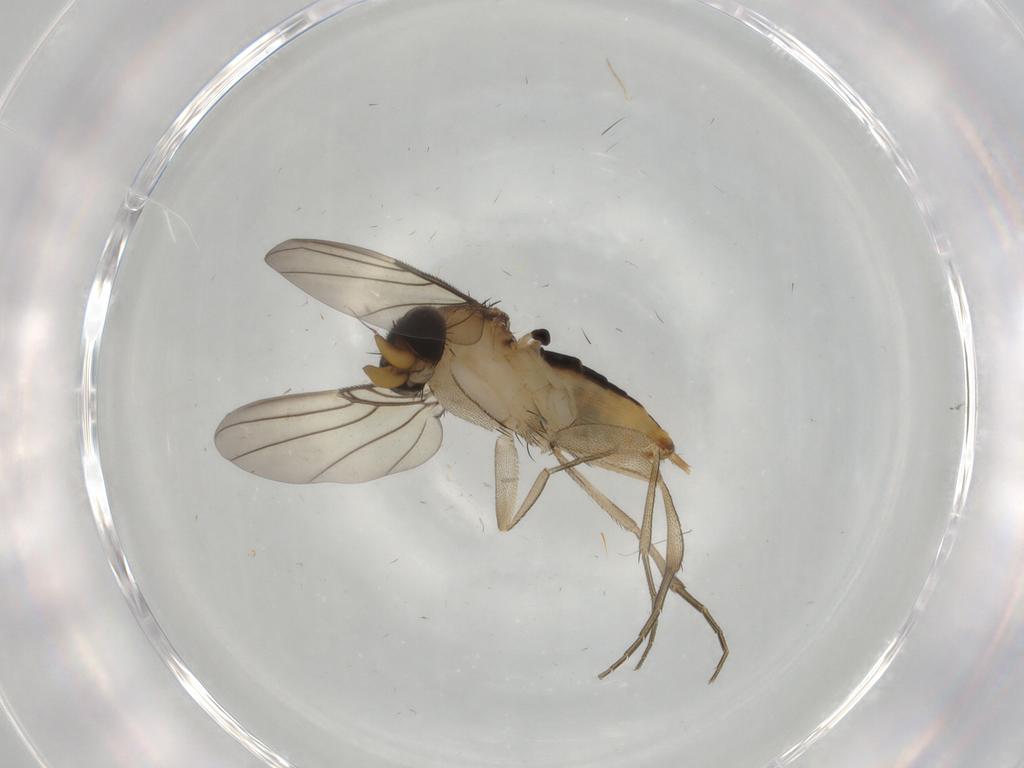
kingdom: Animalia
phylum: Arthropoda
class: Insecta
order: Diptera
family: Phoridae
